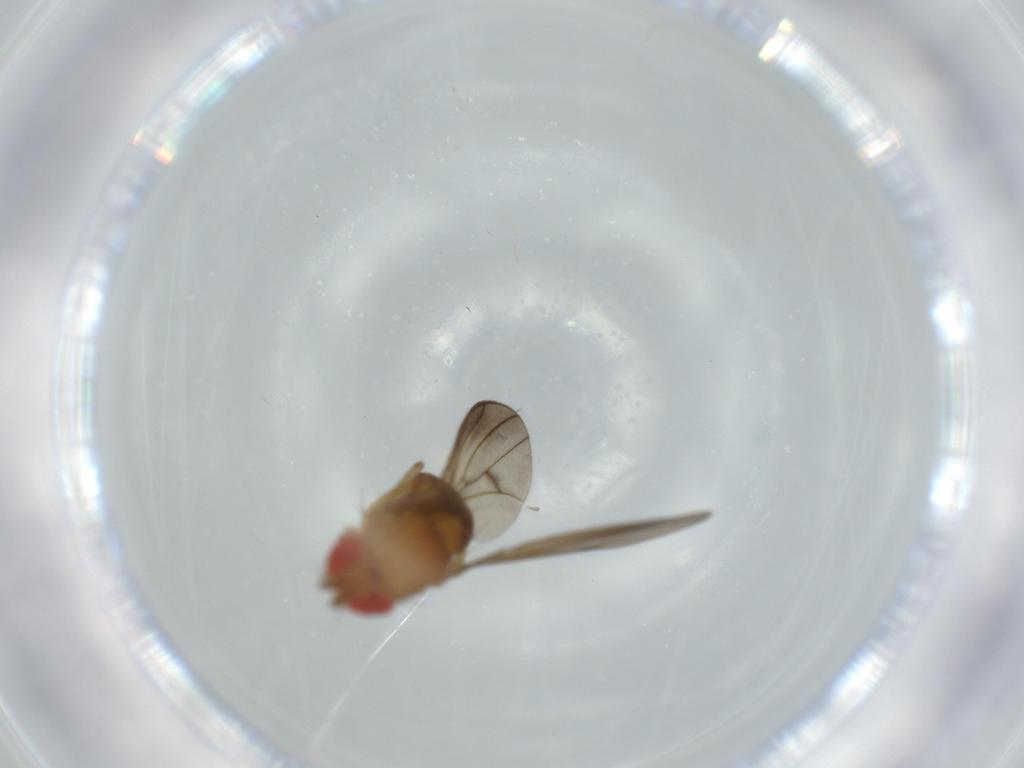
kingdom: Animalia
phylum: Arthropoda
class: Insecta
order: Diptera
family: Drosophilidae
